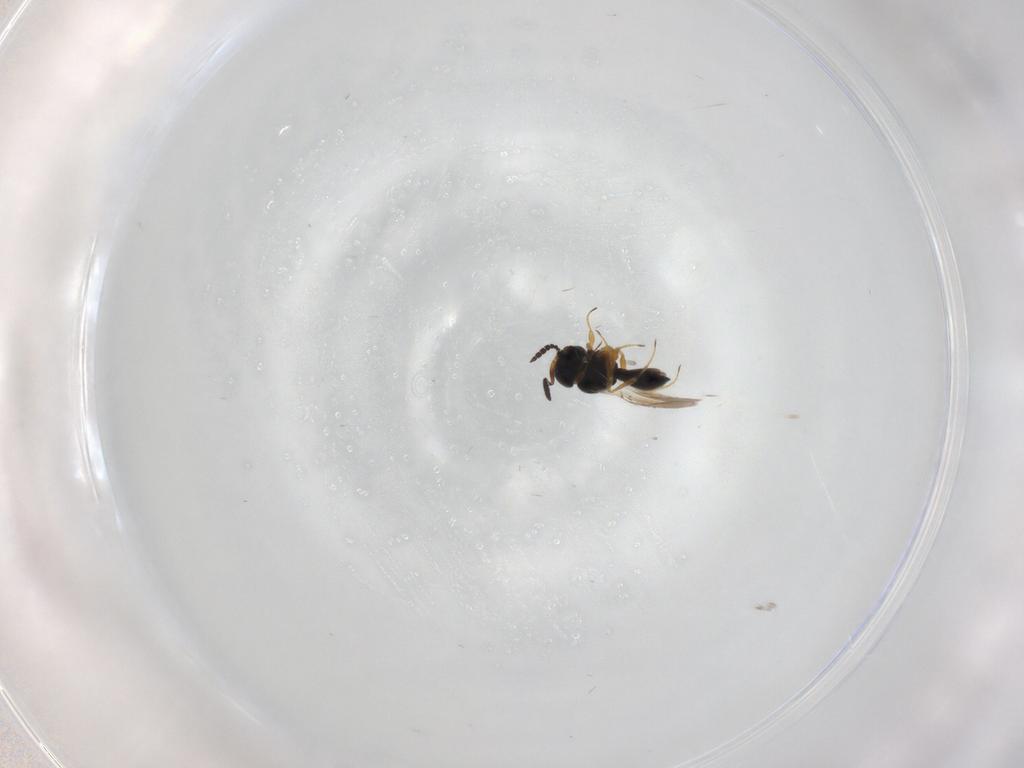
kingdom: Animalia
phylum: Arthropoda
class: Insecta
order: Hymenoptera
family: Scelionidae
